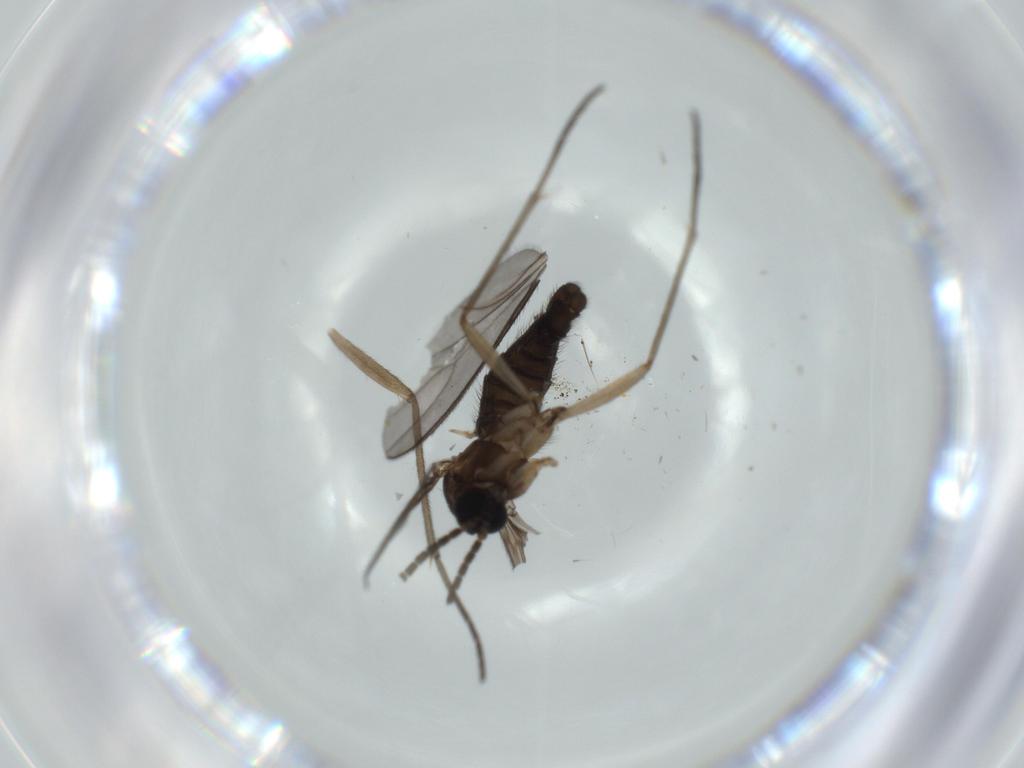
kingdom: Animalia
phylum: Arthropoda
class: Insecta
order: Diptera
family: Sciaridae
